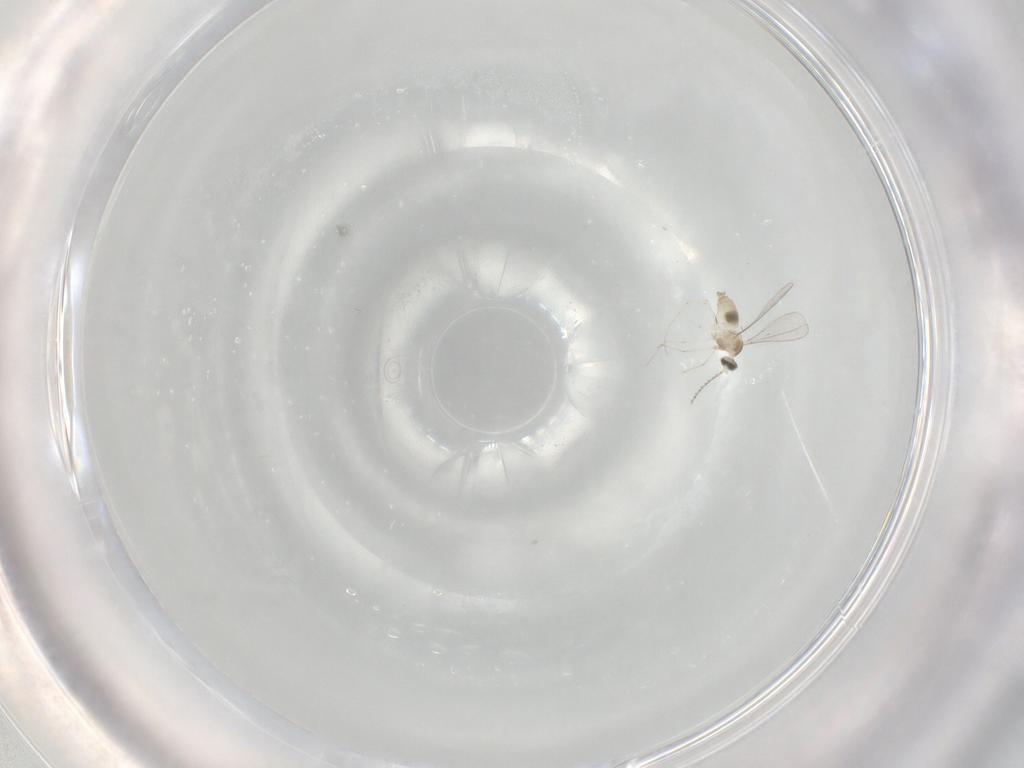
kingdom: Animalia
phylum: Arthropoda
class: Insecta
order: Diptera
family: Cecidomyiidae
